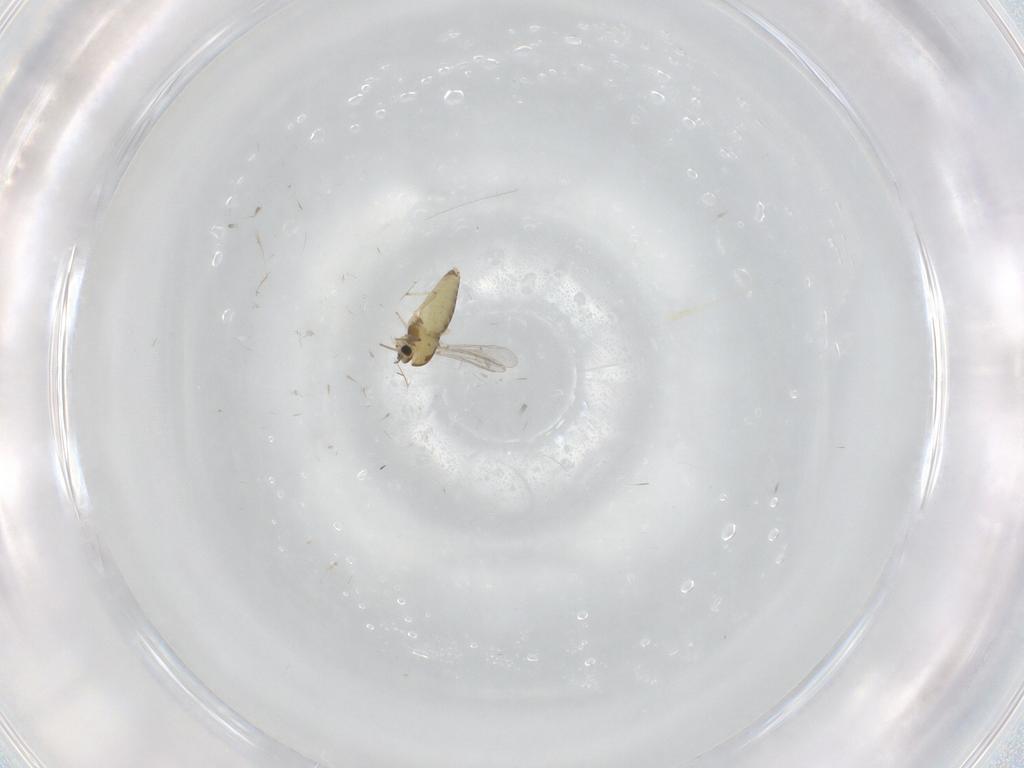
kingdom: Animalia
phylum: Arthropoda
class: Insecta
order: Diptera
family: Chironomidae
